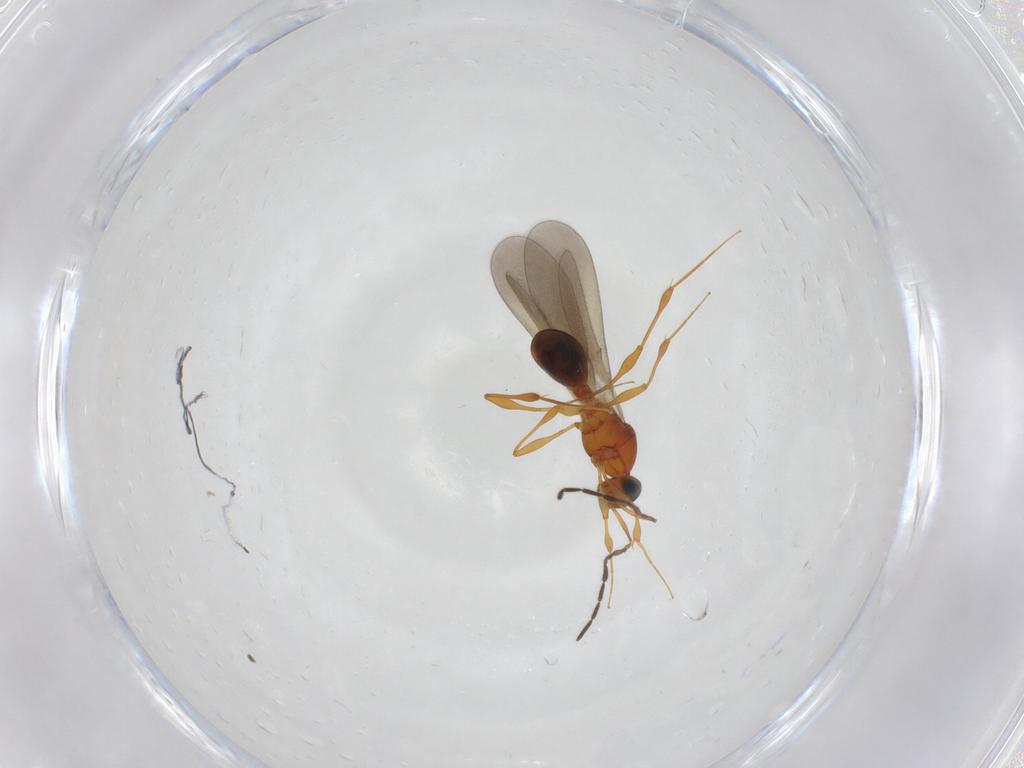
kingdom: Animalia
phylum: Arthropoda
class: Insecta
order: Hymenoptera
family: Platygastridae
